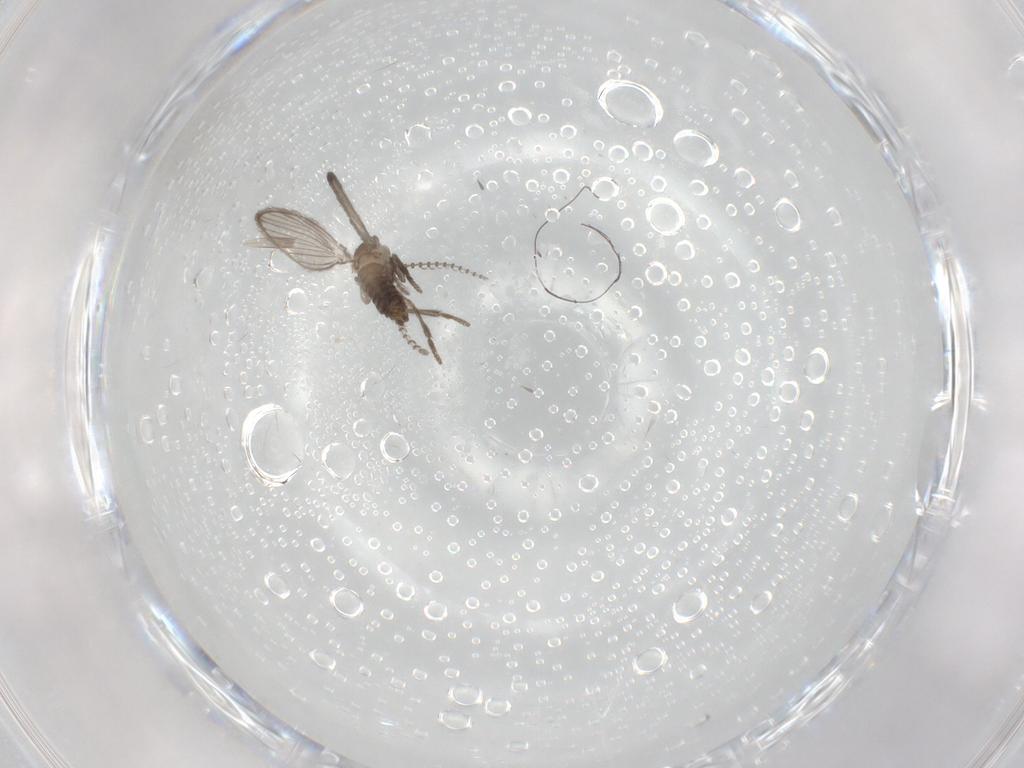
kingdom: Animalia
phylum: Arthropoda
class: Insecta
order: Diptera
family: Psychodidae
